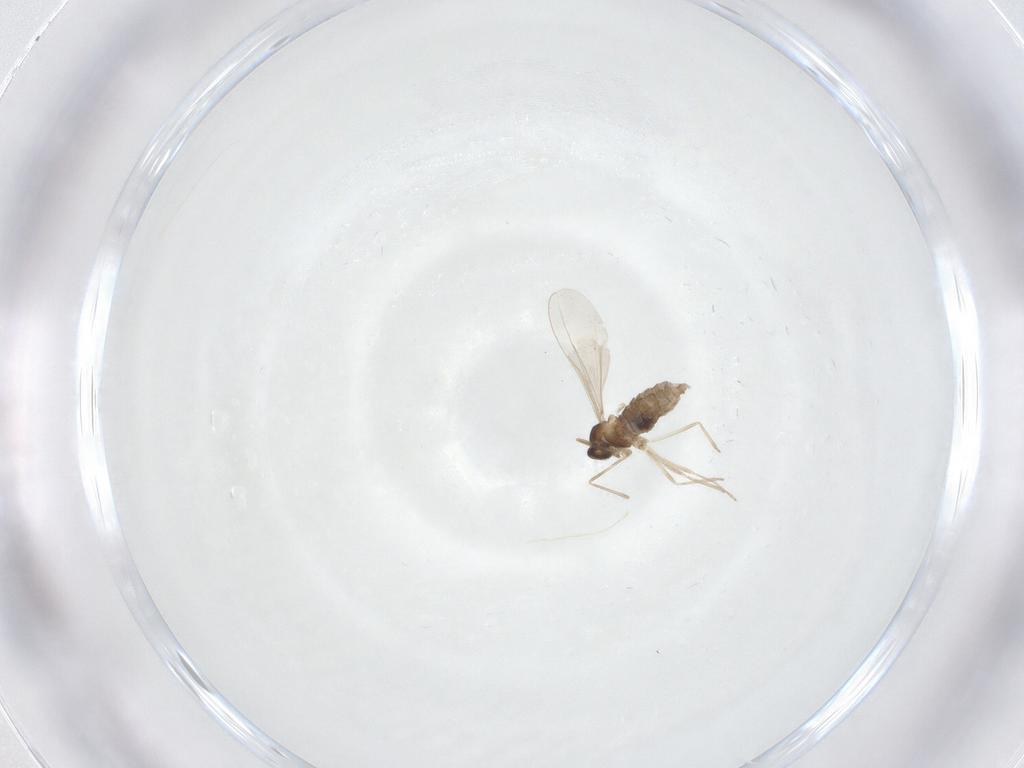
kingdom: Animalia
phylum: Arthropoda
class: Insecta
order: Diptera
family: Cecidomyiidae
